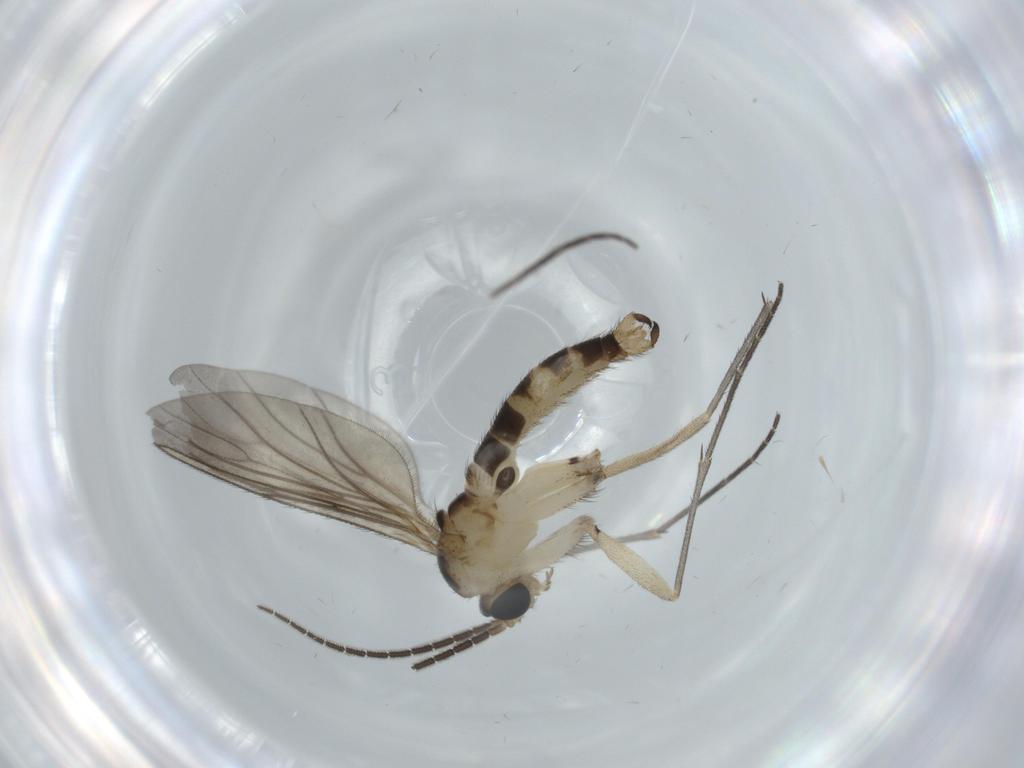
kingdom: Animalia
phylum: Arthropoda
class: Insecta
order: Diptera
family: Sciaridae
